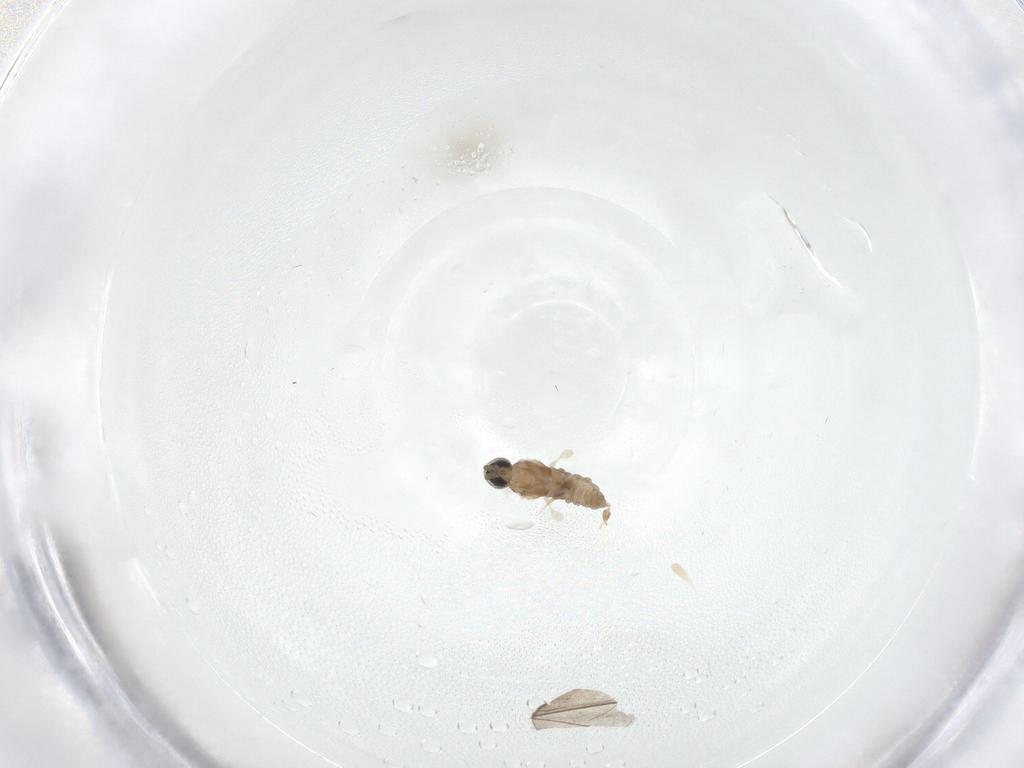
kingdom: Animalia
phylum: Arthropoda
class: Insecta
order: Diptera
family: Cecidomyiidae
